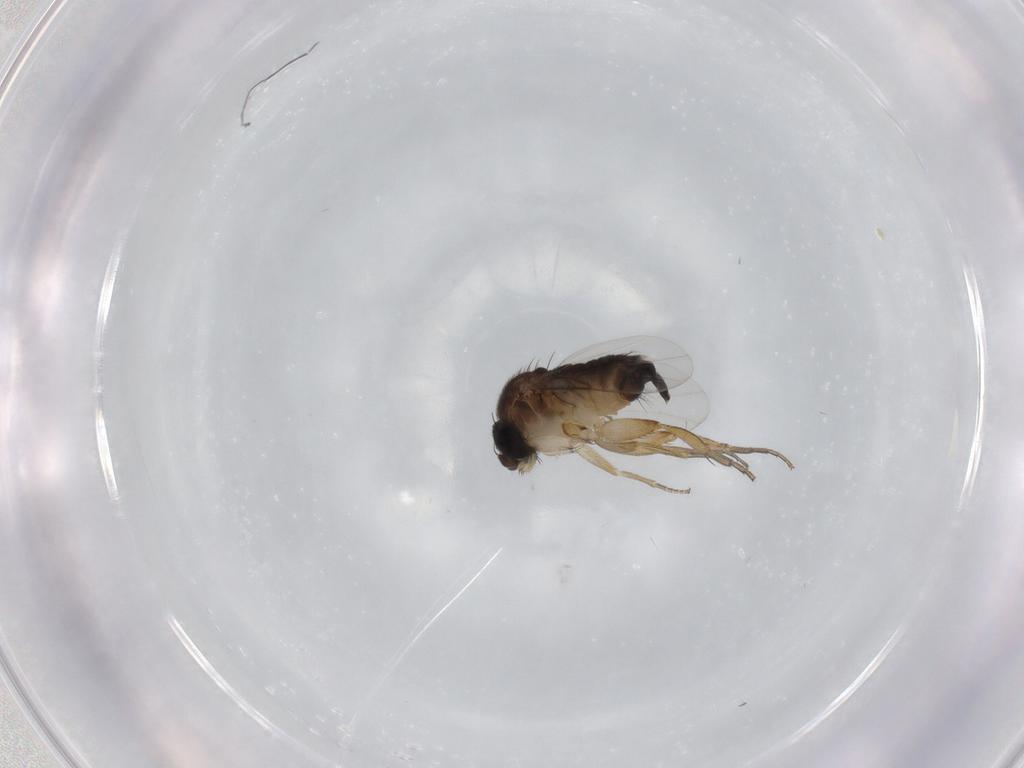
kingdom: Animalia
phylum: Arthropoda
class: Insecta
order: Diptera
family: Phoridae
